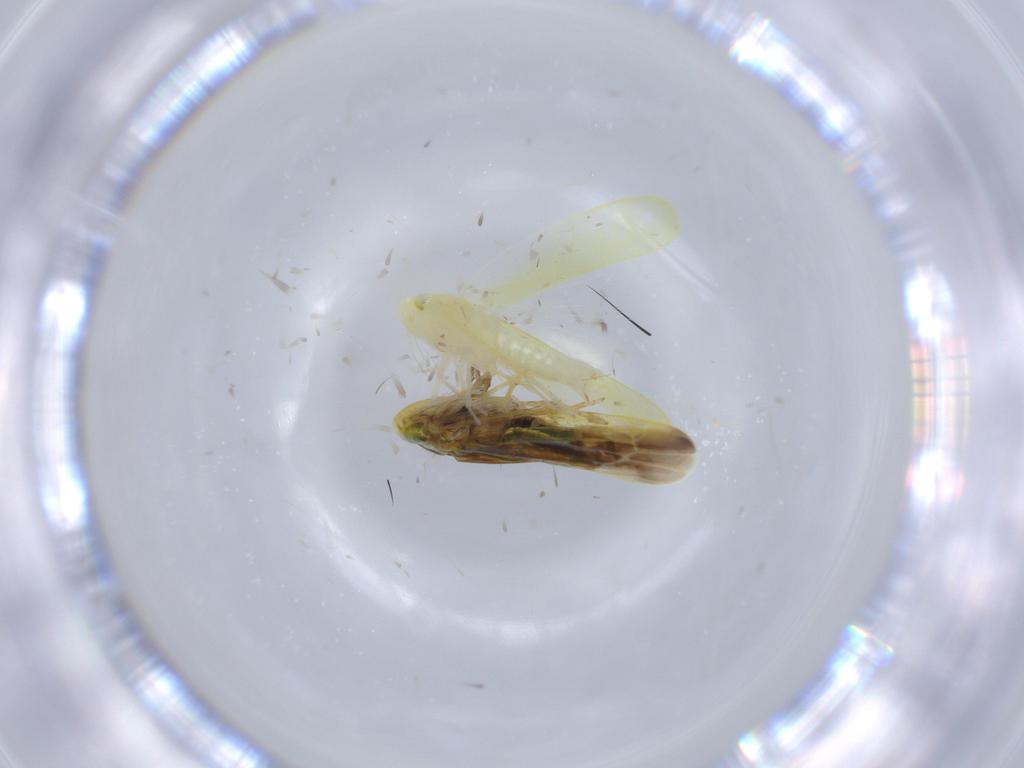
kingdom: Animalia
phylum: Arthropoda
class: Insecta
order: Hemiptera
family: Cicadellidae
